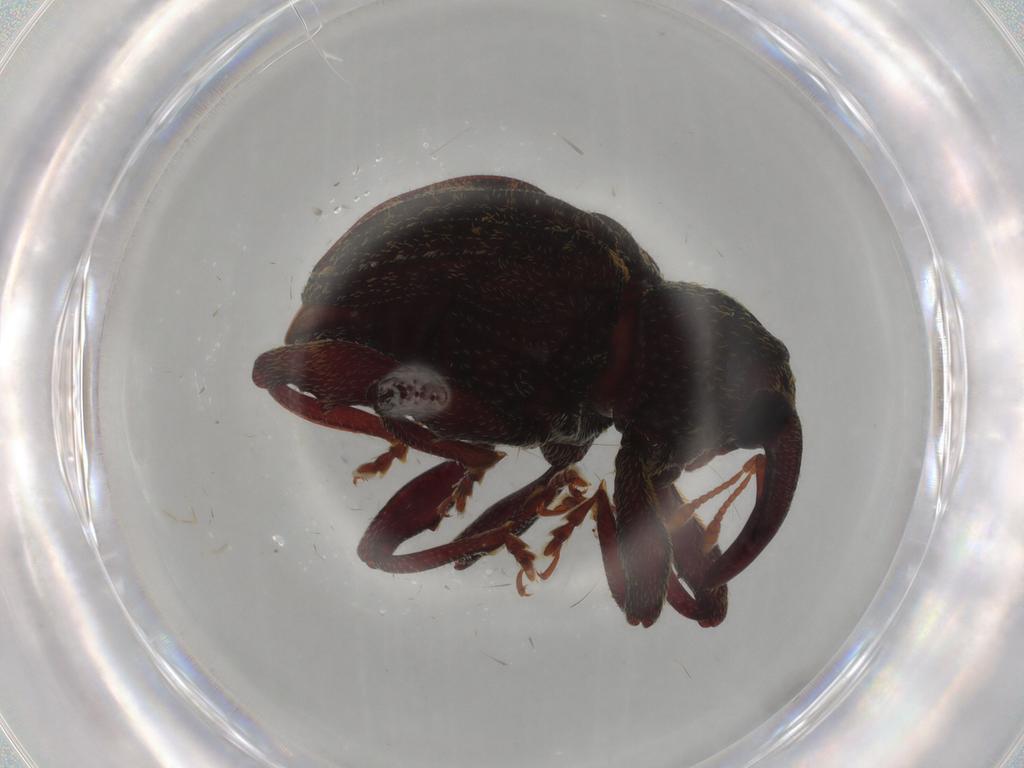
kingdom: Animalia
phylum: Arthropoda
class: Insecta
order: Coleoptera
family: Curculionidae
